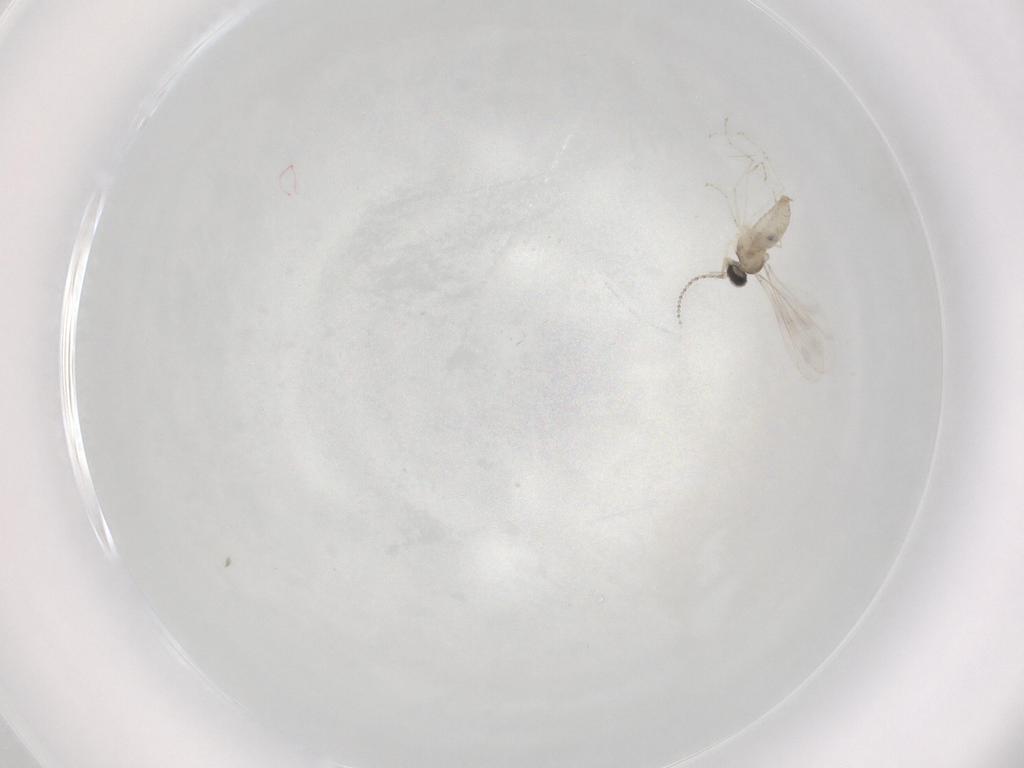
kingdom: Animalia
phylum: Arthropoda
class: Insecta
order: Diptera
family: Cecidomyiidae
